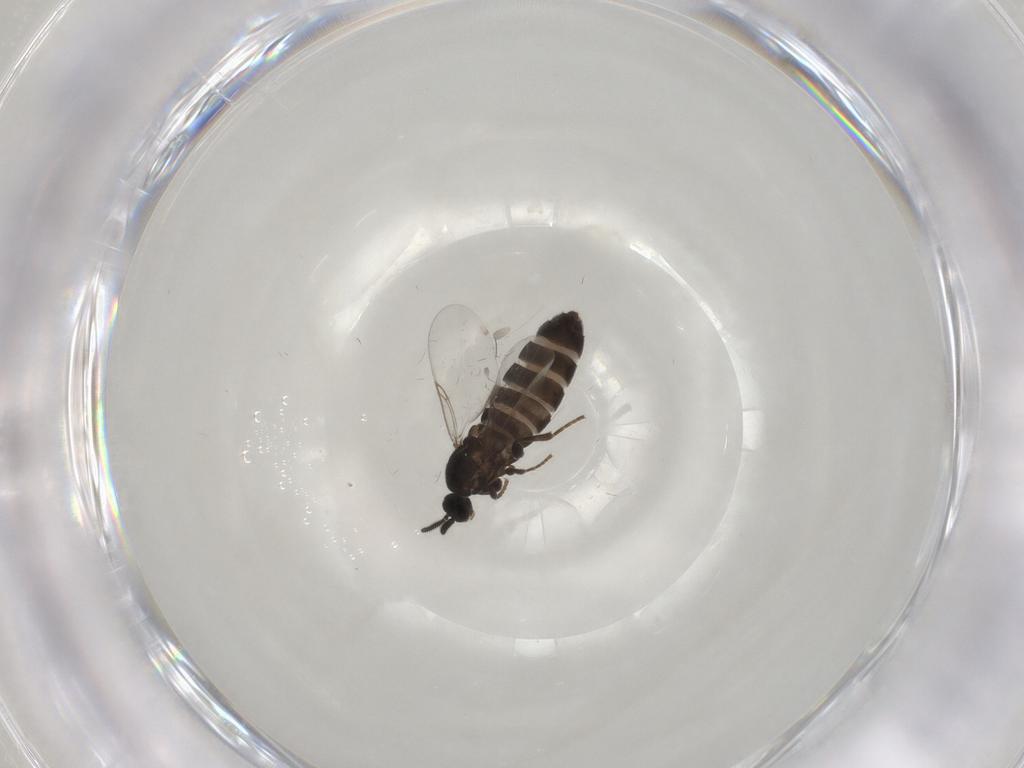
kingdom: Animalia
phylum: Arthropoda
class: Insecta
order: Diptera
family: Calliphoridae
